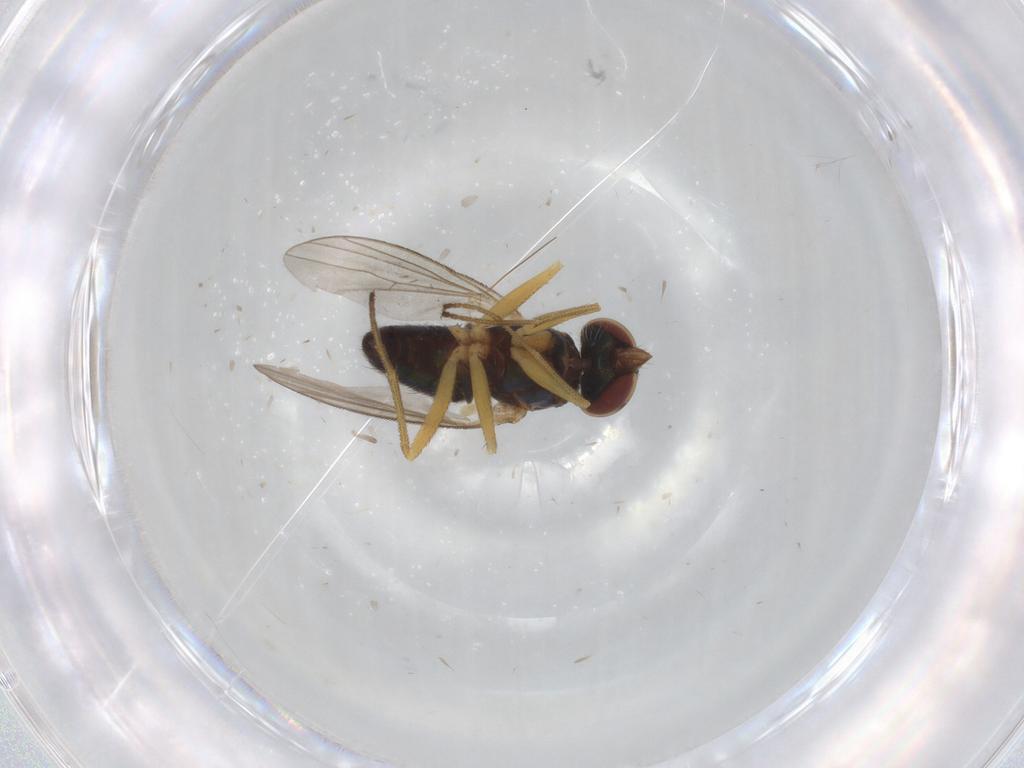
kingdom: Animalia
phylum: Arthropoda
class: Insecta
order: Diptera
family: Dolichopodidae
